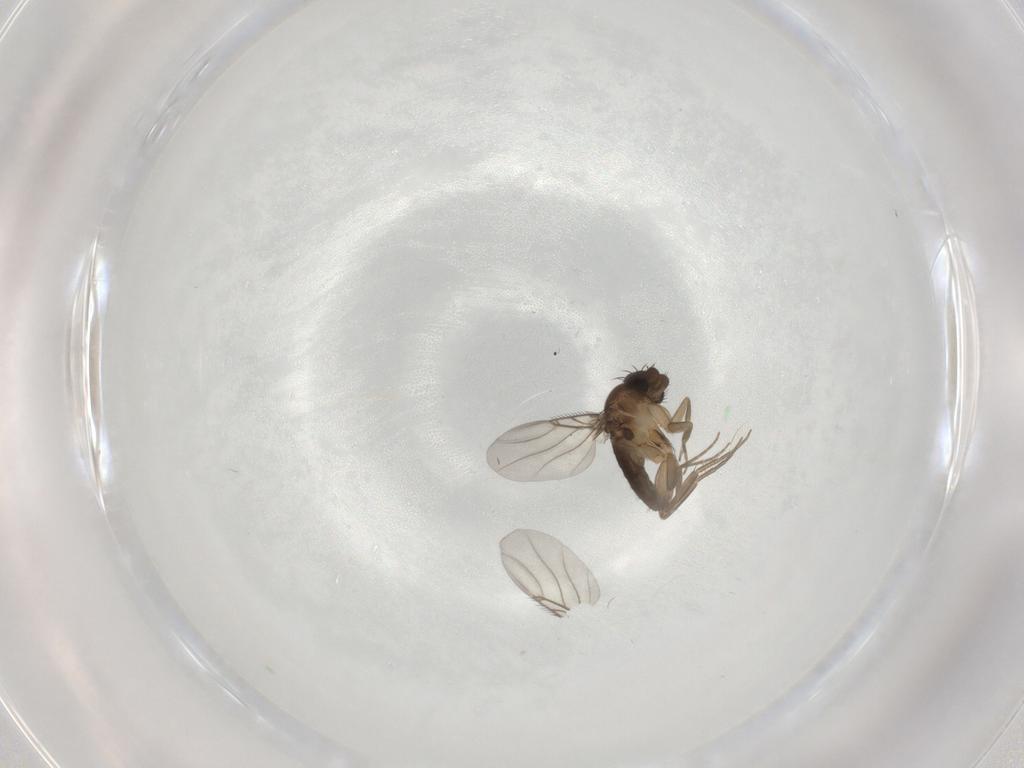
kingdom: Animalia
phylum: Arthropoda
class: Insecta
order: Diptera
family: Phoridae
